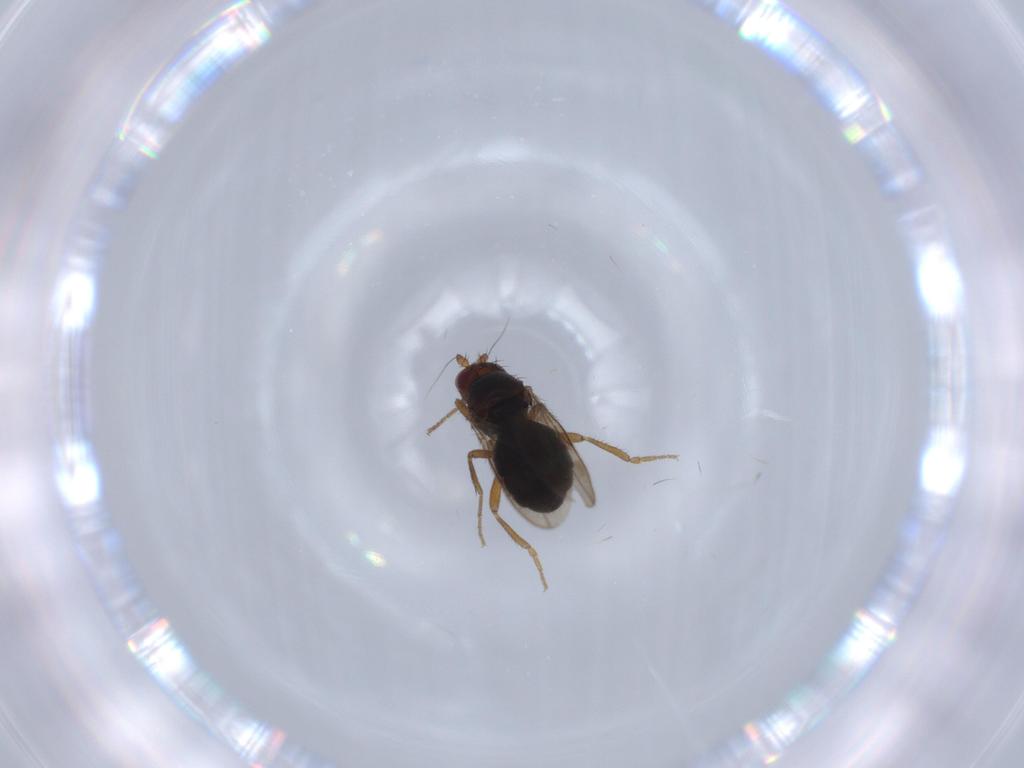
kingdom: Animalia
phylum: Arthropoda
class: Insecta
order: Diptera
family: Sphaeroceridae
